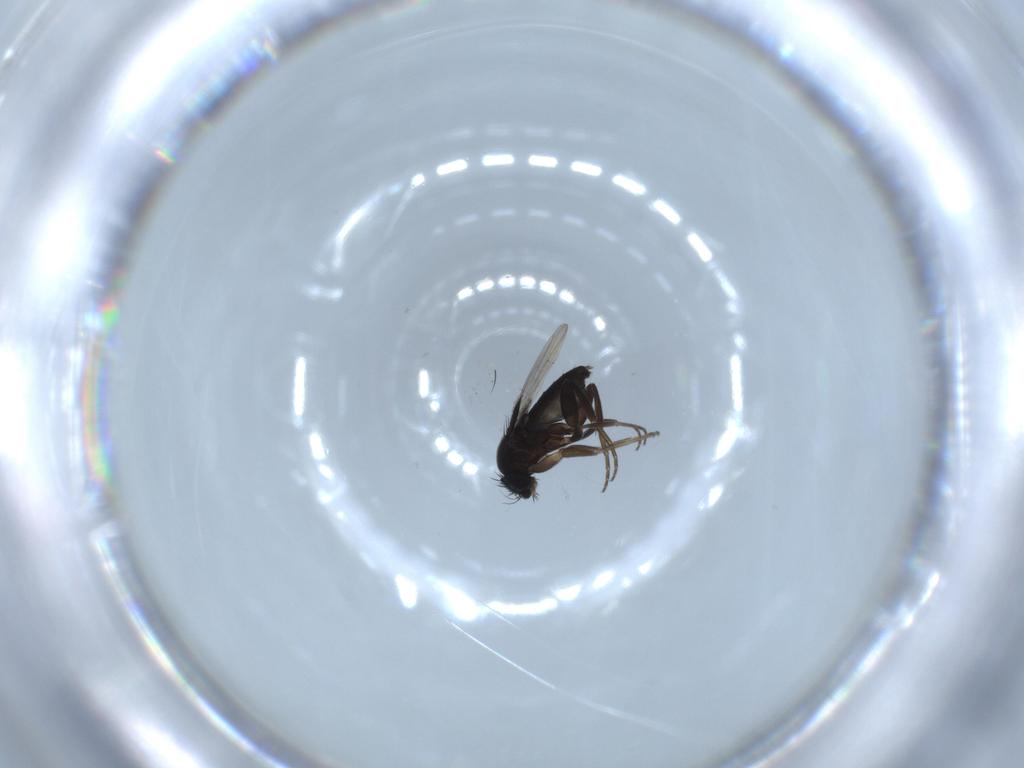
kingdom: Animalia
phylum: Arthropoda
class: Insecta
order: Diptera
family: Phoridae
